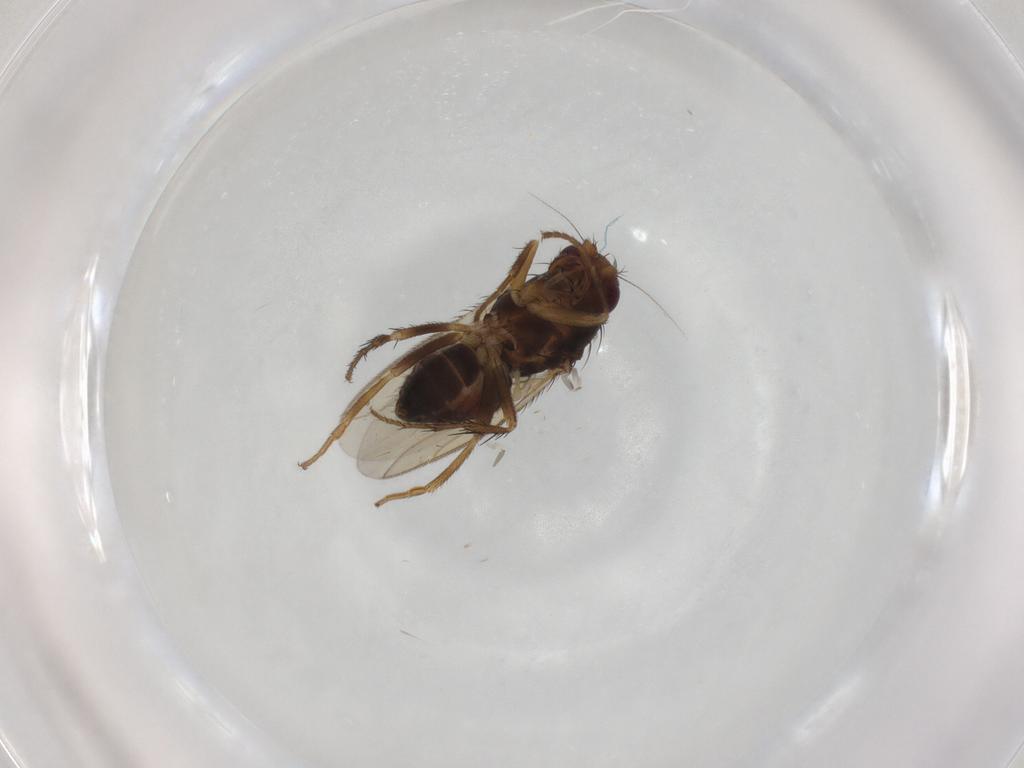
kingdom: Animalia
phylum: Arthropoda
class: Insecta
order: Diptera
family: Sphaeroceridae
